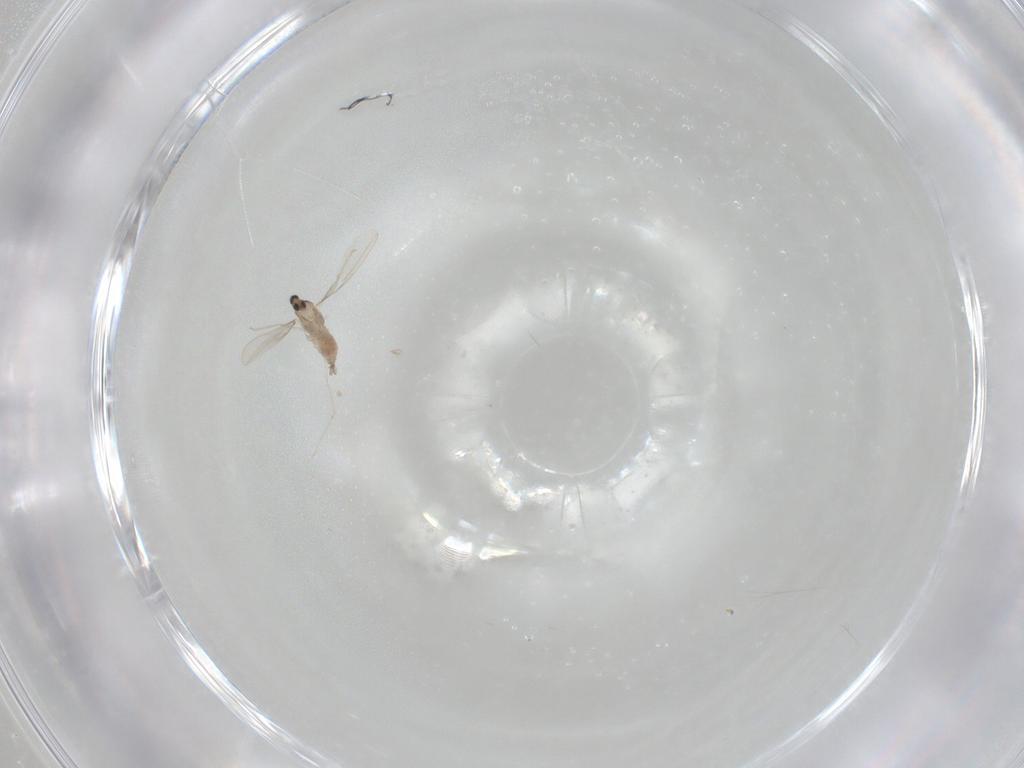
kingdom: Animalia
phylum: Arthropoda
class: Insecta
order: Diptera
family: Cecidomyiidae
